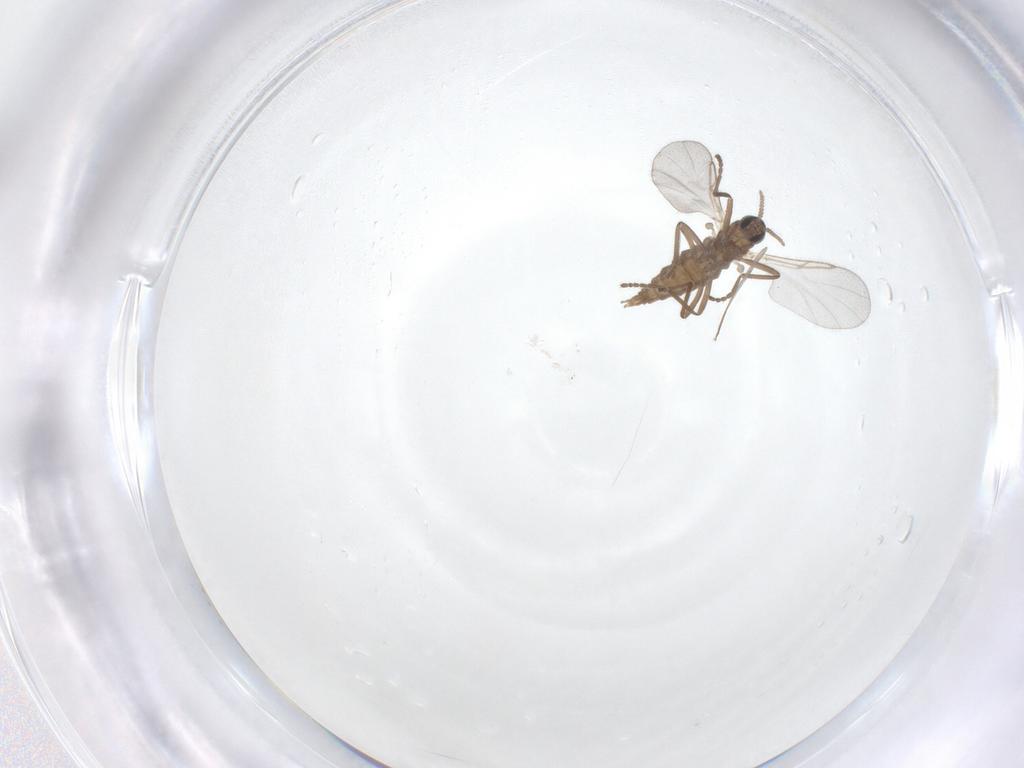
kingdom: Animalia
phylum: Arthropoda
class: Insecta
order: Diptera
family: Cecidomyiidae
